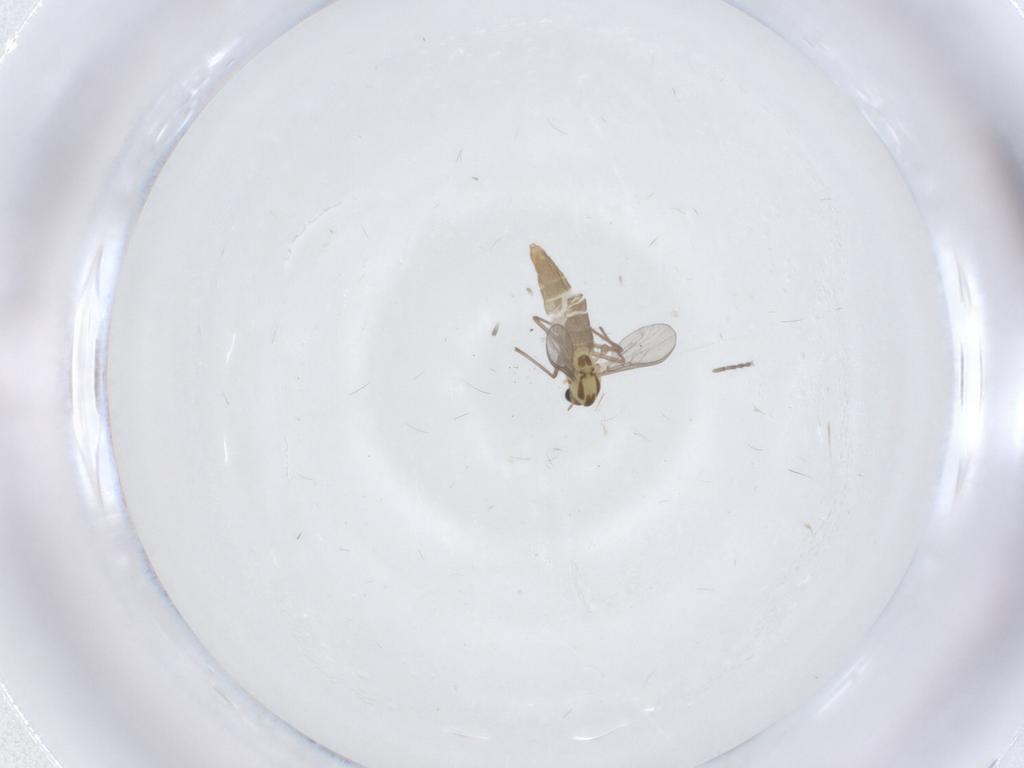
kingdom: Animalia
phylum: Arthropoda
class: Insecta
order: Diptera
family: Chironomidae
